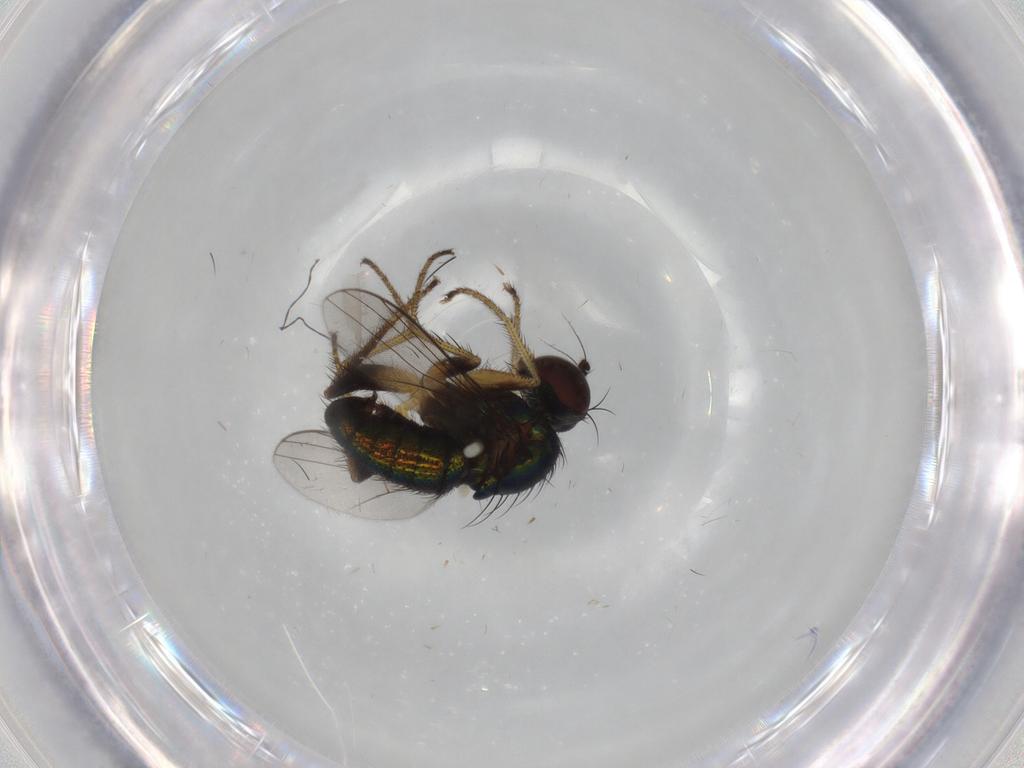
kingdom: Animalia
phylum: Arthropoda
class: Insecta
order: Diptera
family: Dolichopodidae
